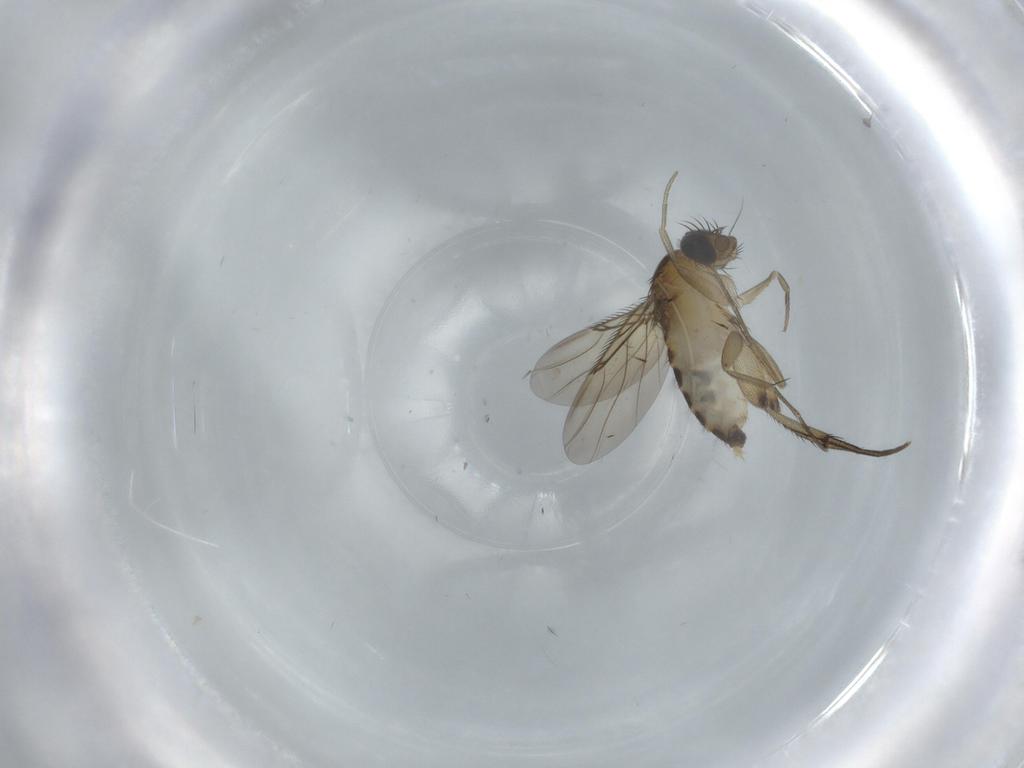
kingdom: Animalia
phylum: Arthropoda
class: Insecta
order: Diptera
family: Phoridae
